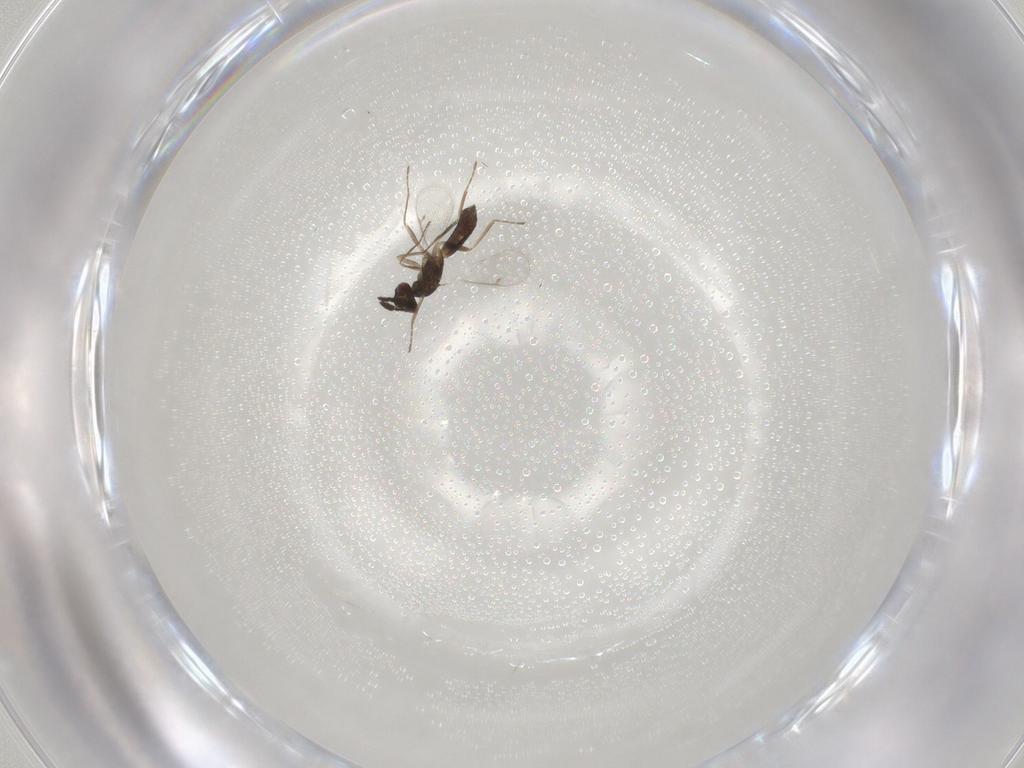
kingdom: Animalia
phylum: Arthropoda
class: Insecta
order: Hymenoptera
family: Eulophidae
